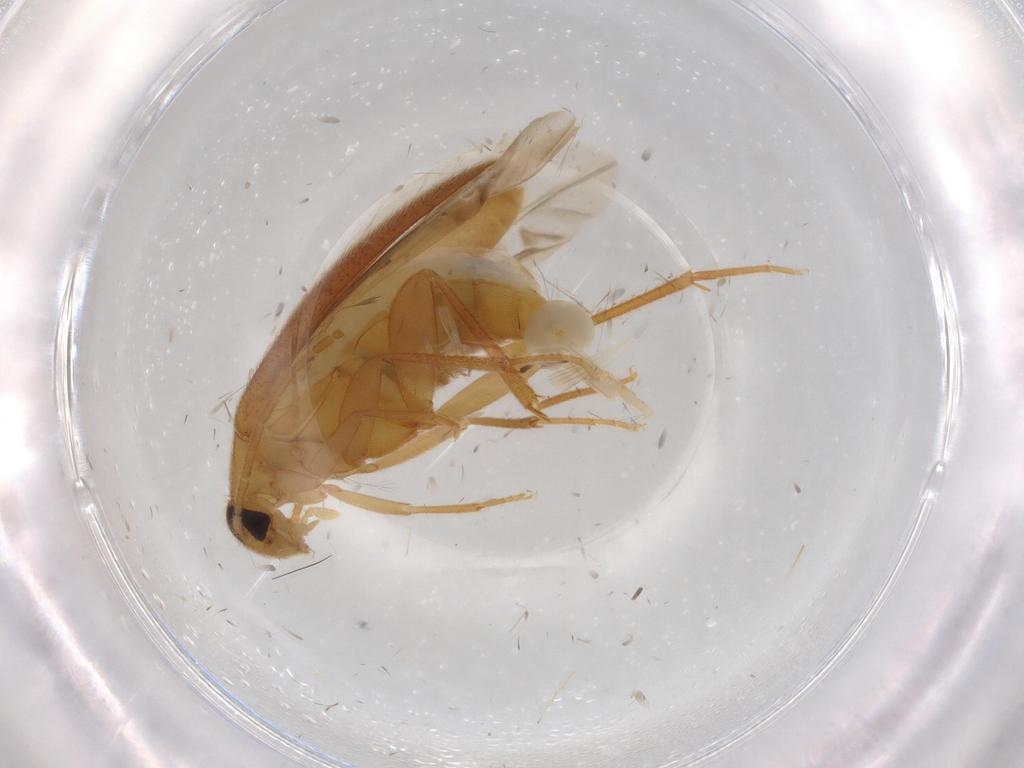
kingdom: Animalia
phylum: Arthropoda
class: Insecta
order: Coleoptera
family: Scraptiidae
